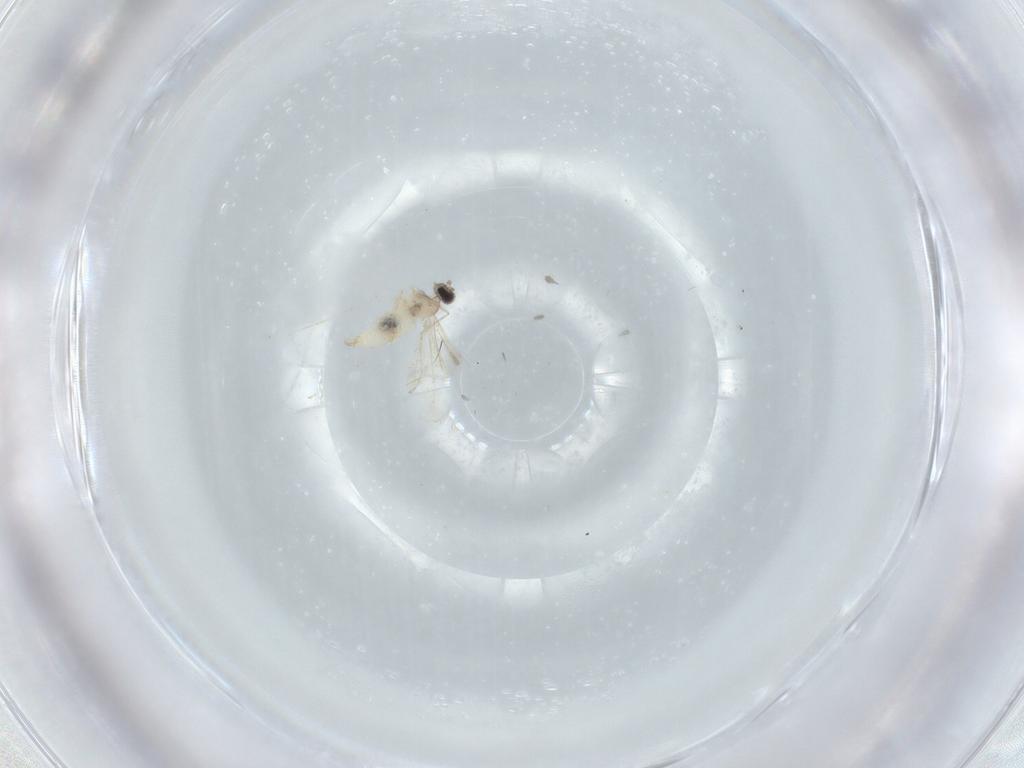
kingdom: Animalia
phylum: Arthropoda
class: Insecta
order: Diptera
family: Cecidomyiidae
